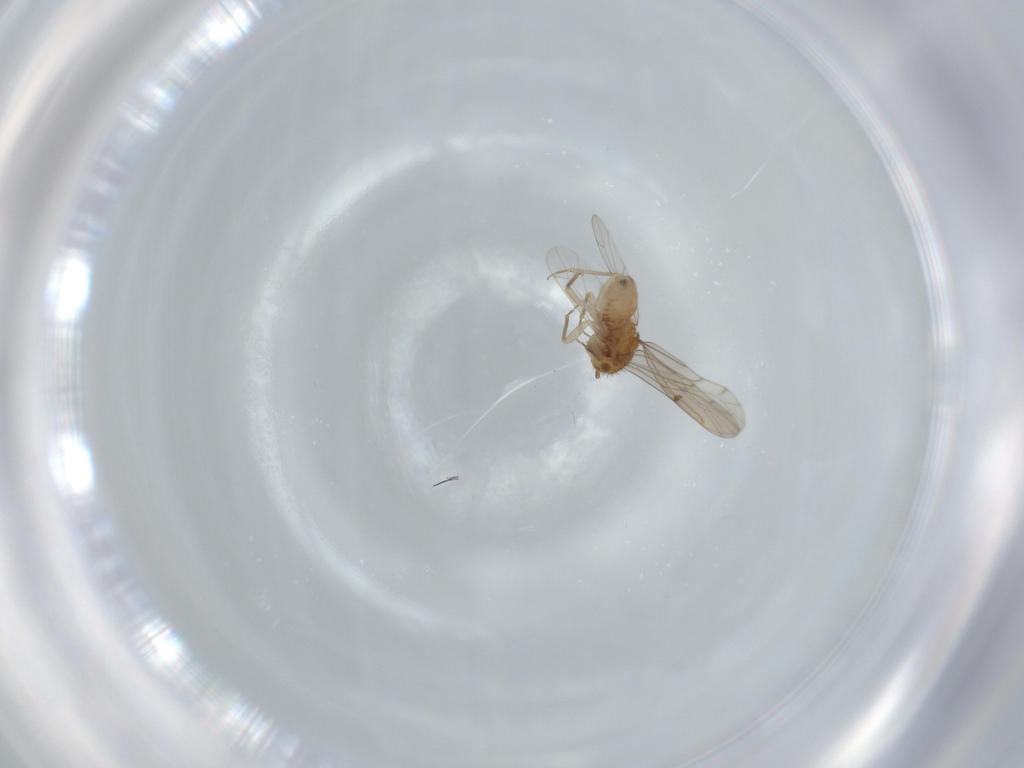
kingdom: Animalia
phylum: Arthropoda
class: Insecta
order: Psocodea
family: Ectopsocidae
